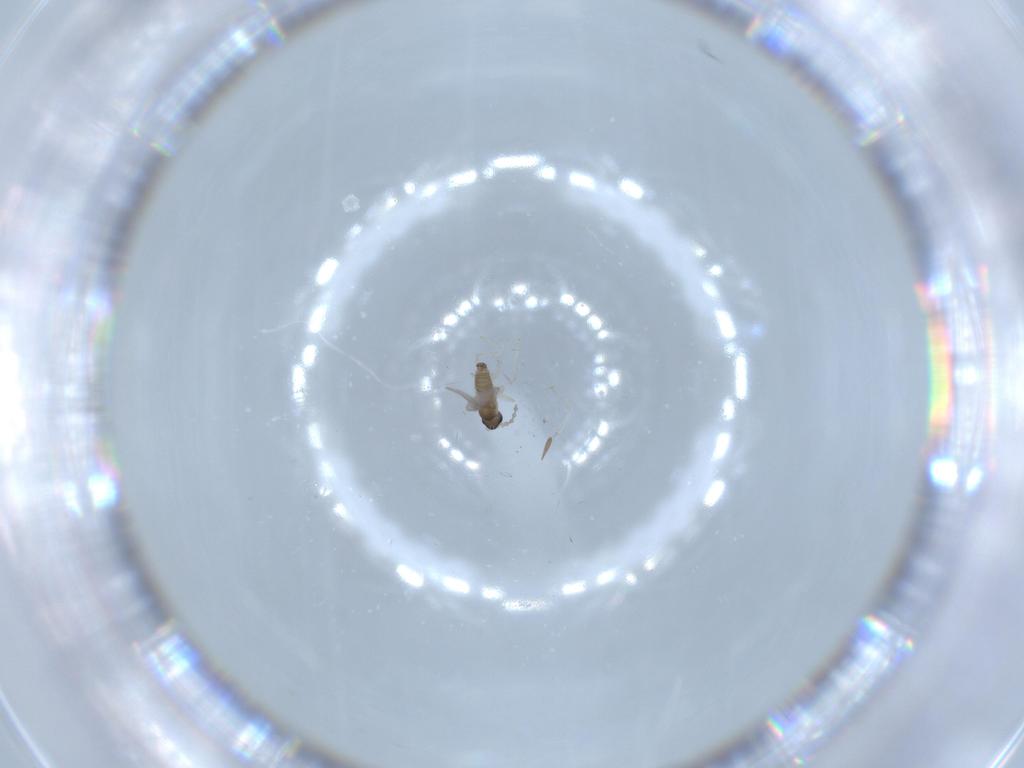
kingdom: Animalia
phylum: Arthropoda
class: Insecta
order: Diptera
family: Cecidomyiidae
